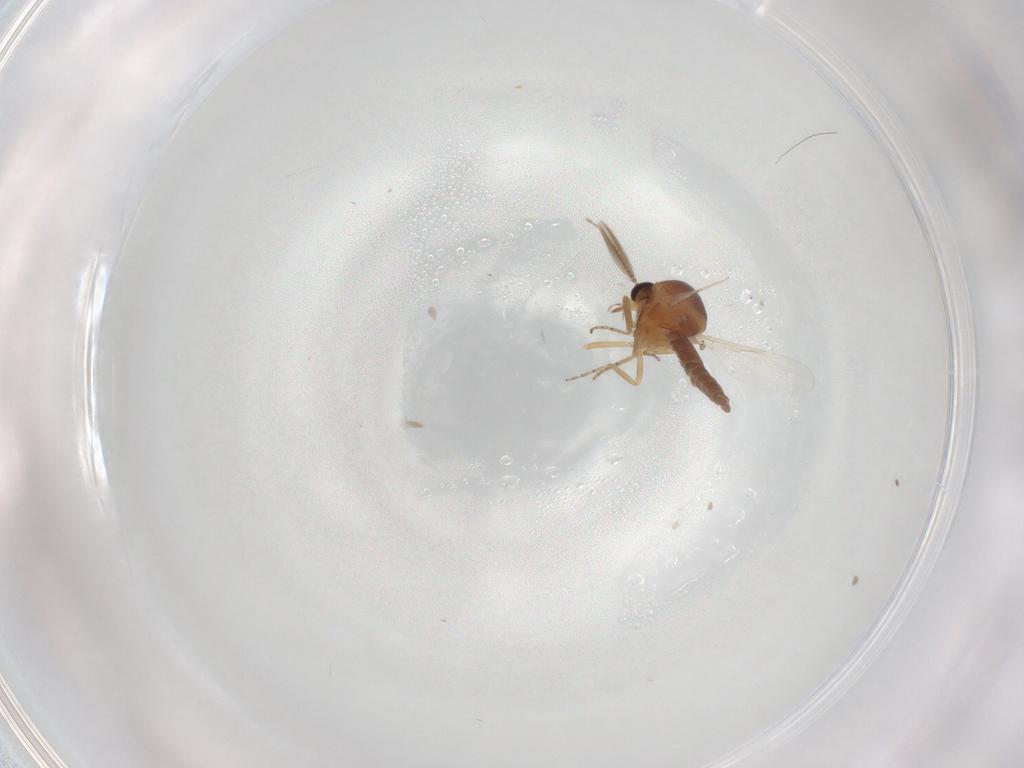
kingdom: Animalia
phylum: Arthropoda
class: Insecta
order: Diptera
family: Ceratopogonidae
